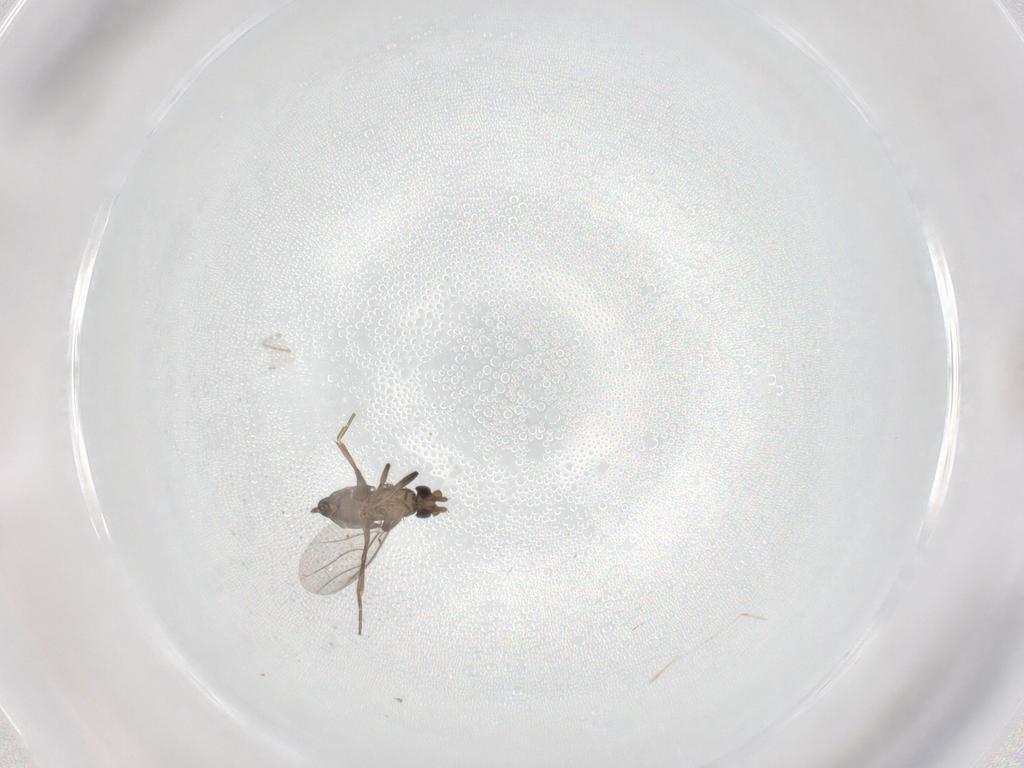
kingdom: Animalia
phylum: Arthropoda
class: Insecta
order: Diptera
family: Phoridae
